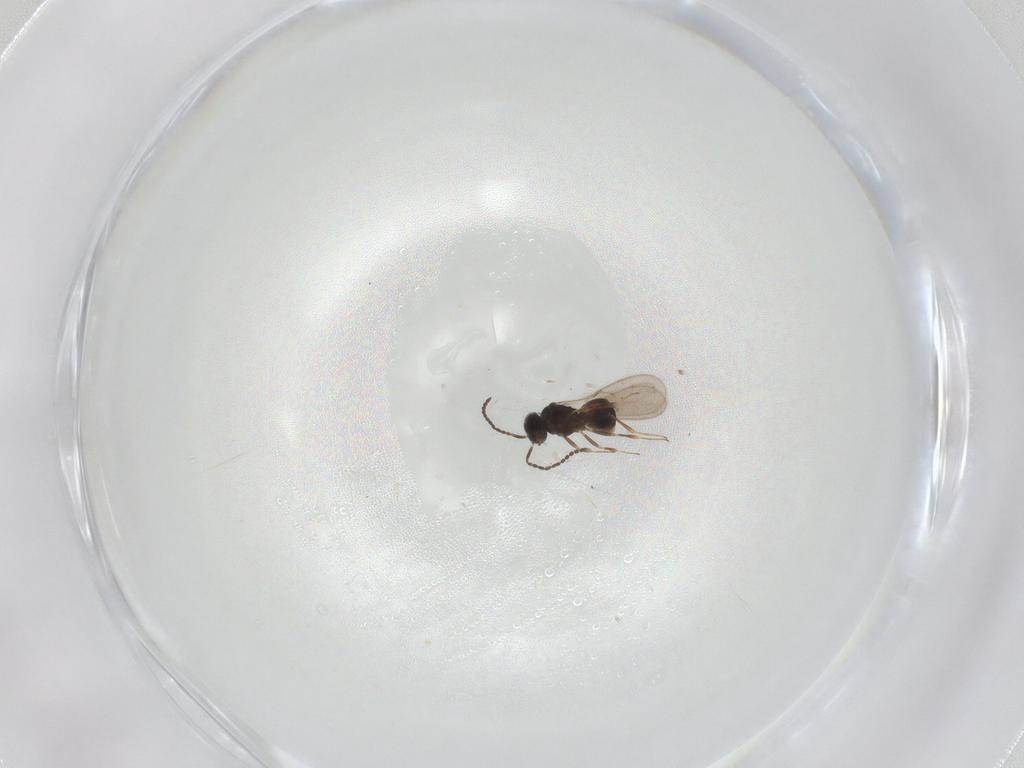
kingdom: Animalia
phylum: Arthropoda
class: Insecta
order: Hymenoptera
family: Scelionidae
